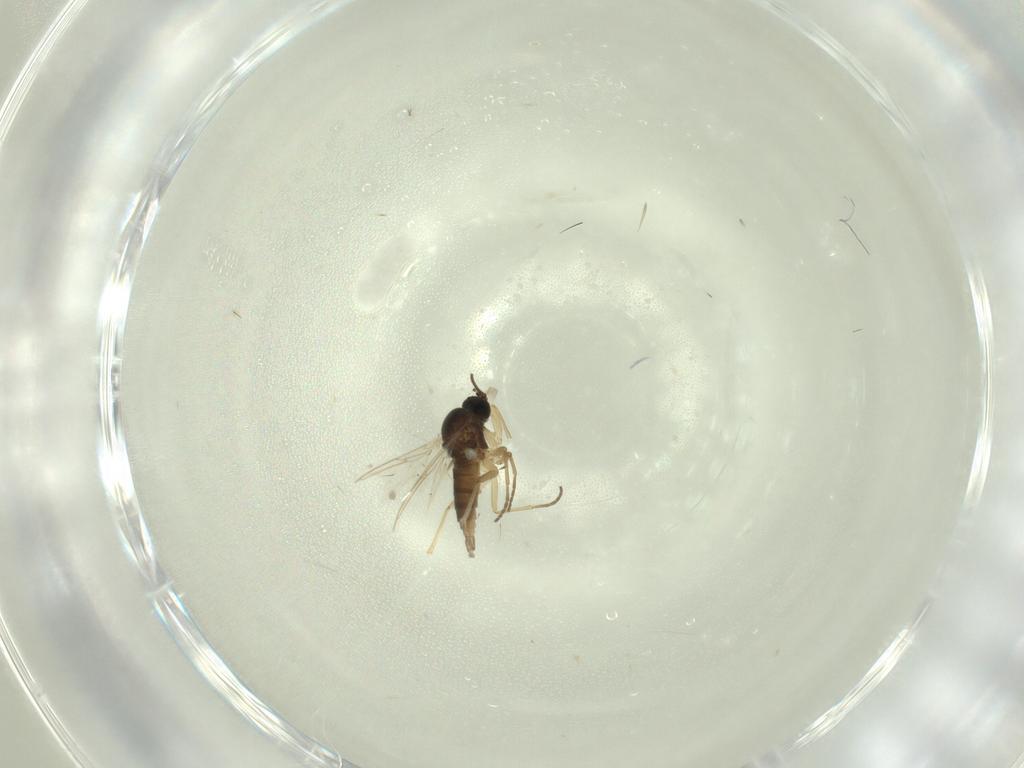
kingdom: Animalia
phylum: Arthropoda
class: Insecta
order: Diptera
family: Sciaridae
